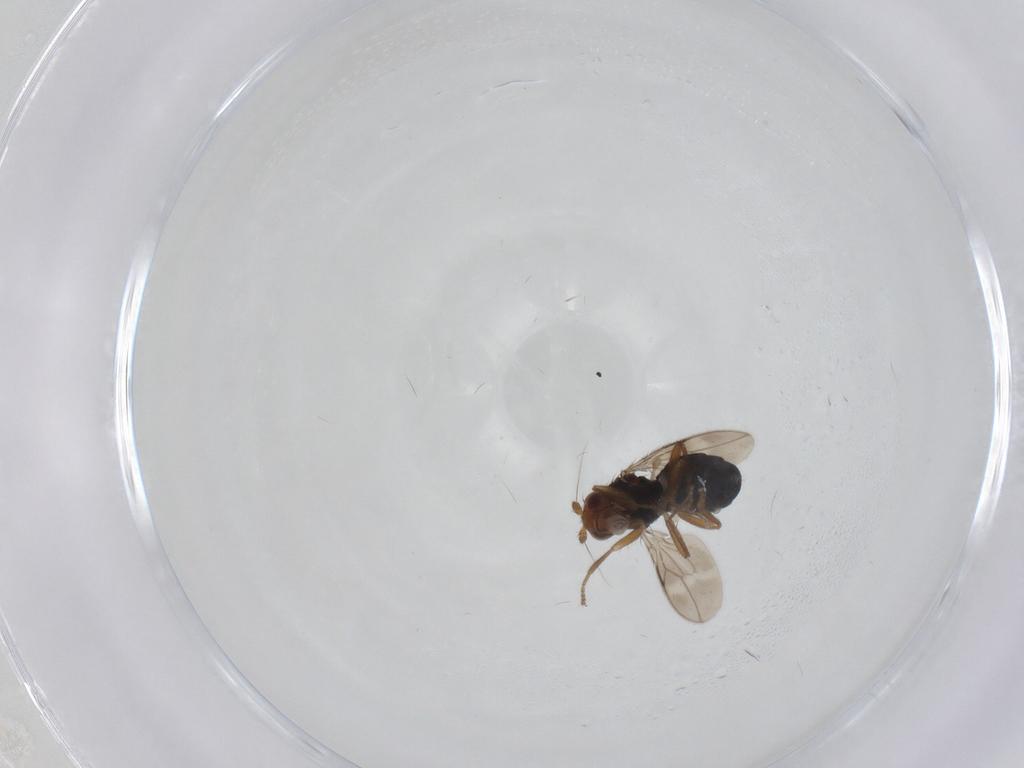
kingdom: Animalia
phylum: Arthropoda
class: Insecta
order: Diptera
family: Sphaeroceridae
